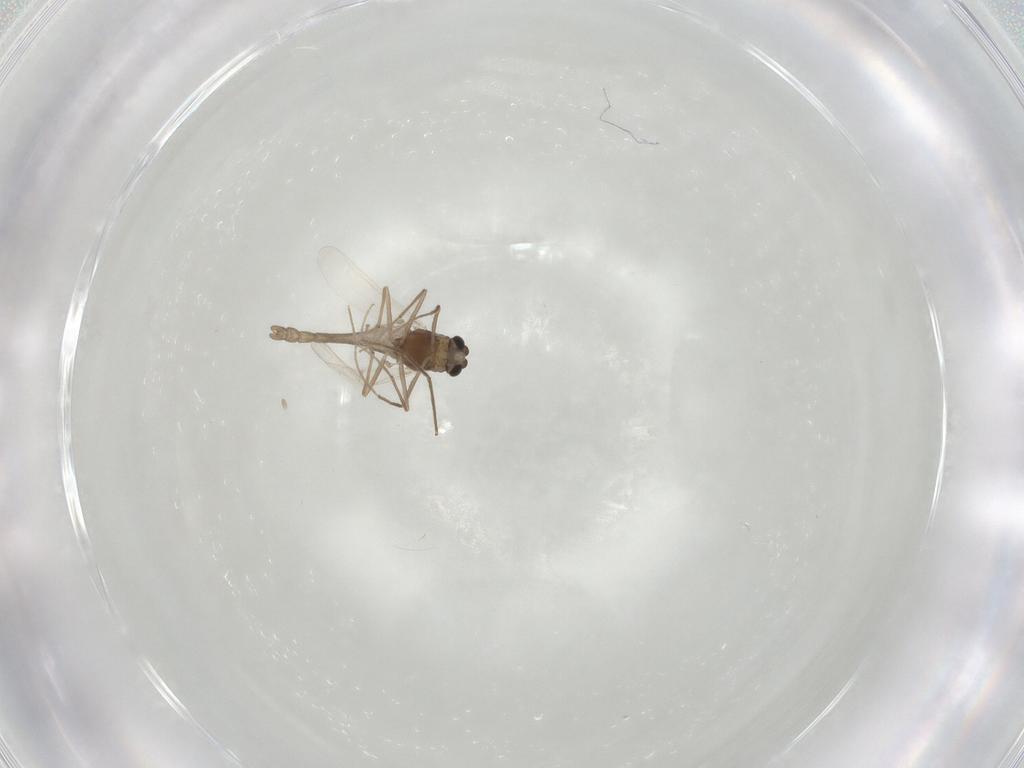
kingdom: Animalia
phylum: Arthropoda
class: Insecta
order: Diptera
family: Chironomidae
